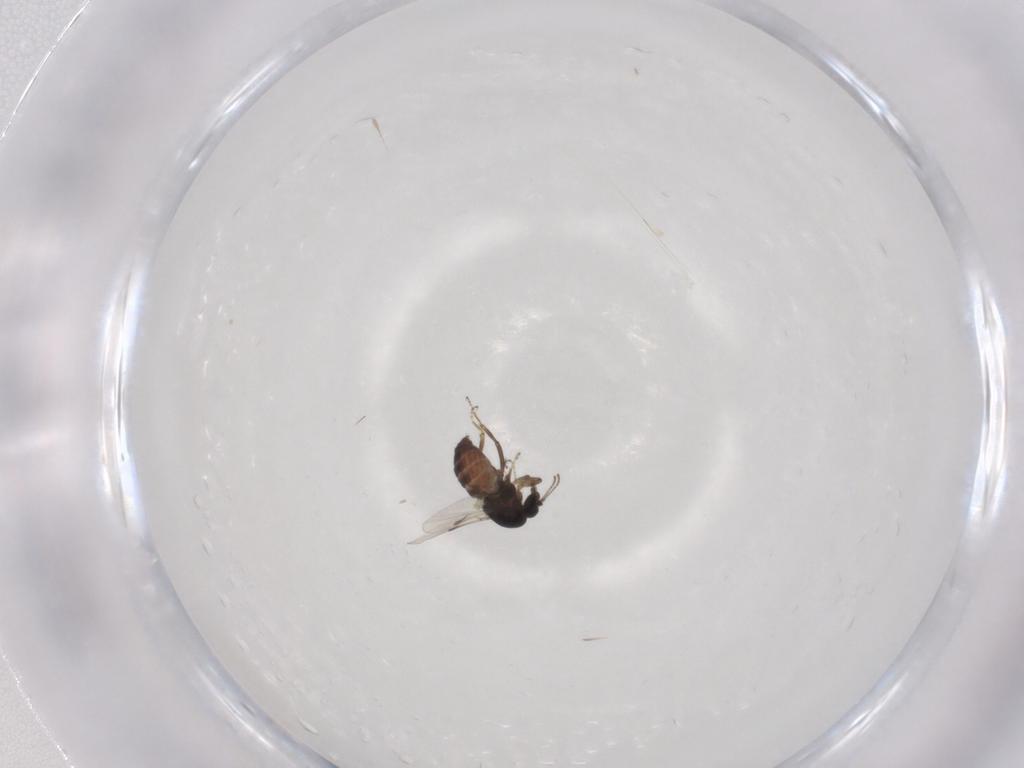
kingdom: Animalia
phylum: Arthropoda
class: Insecta
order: Diptera
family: Ceratopogonidae
